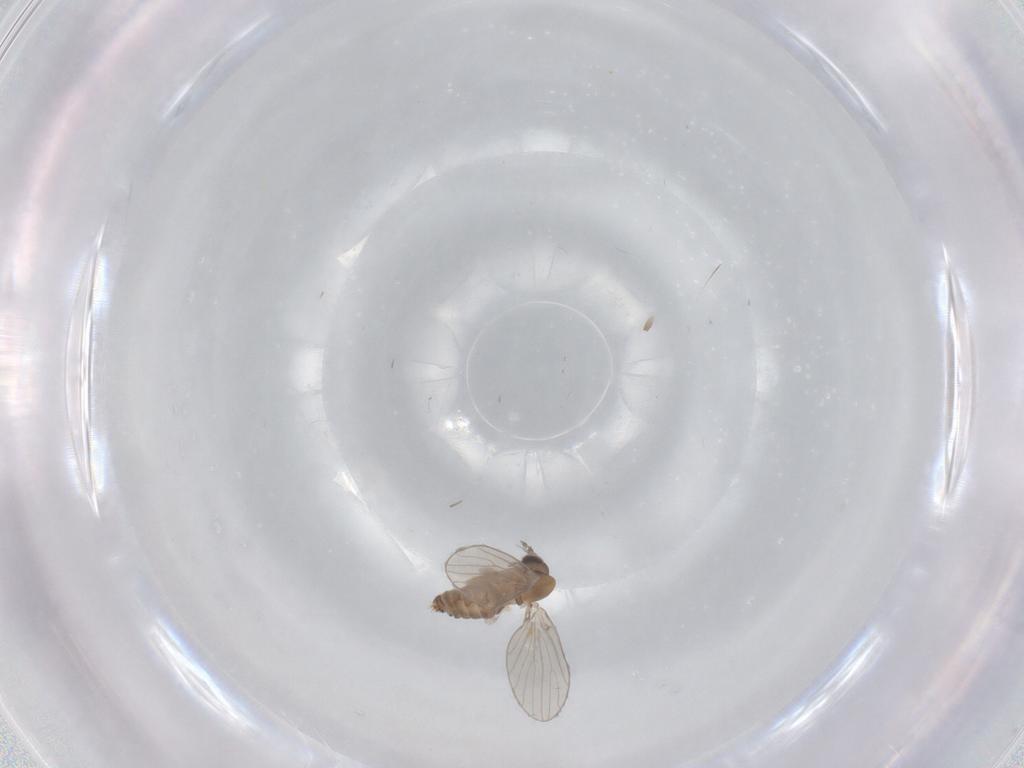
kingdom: Animalia
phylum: Arthropoda
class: Insecta
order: Diptera
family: Psychodidae
